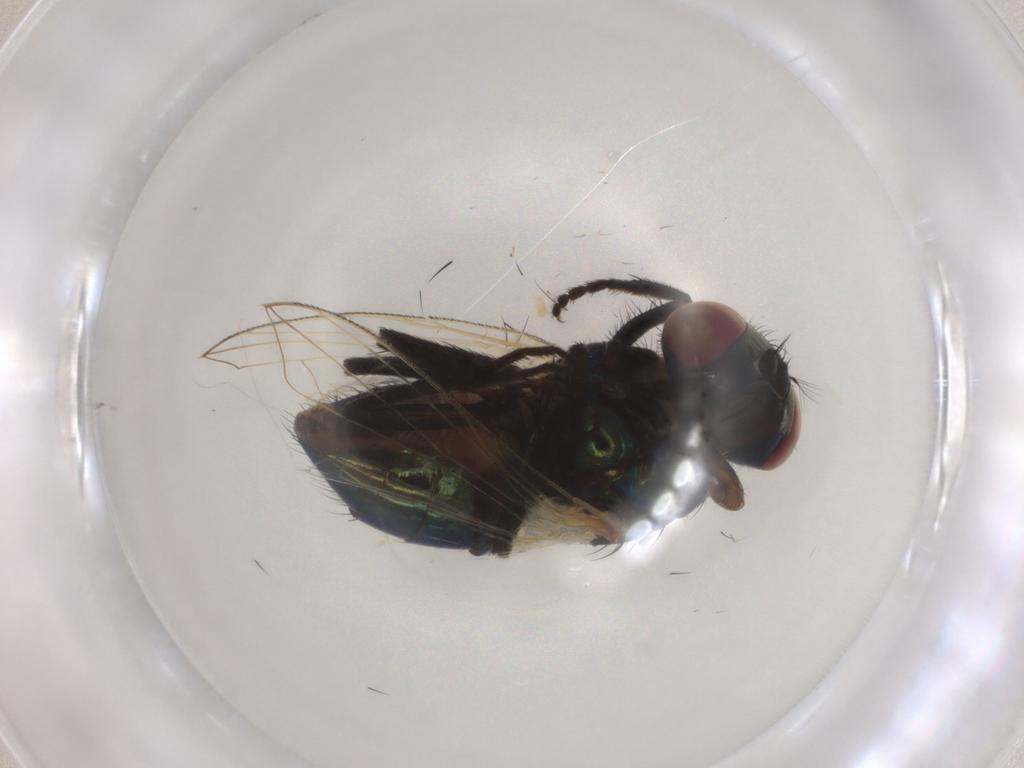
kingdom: Animalia
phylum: Arthropoda
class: Insecta
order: Diptera
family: Muscidae
